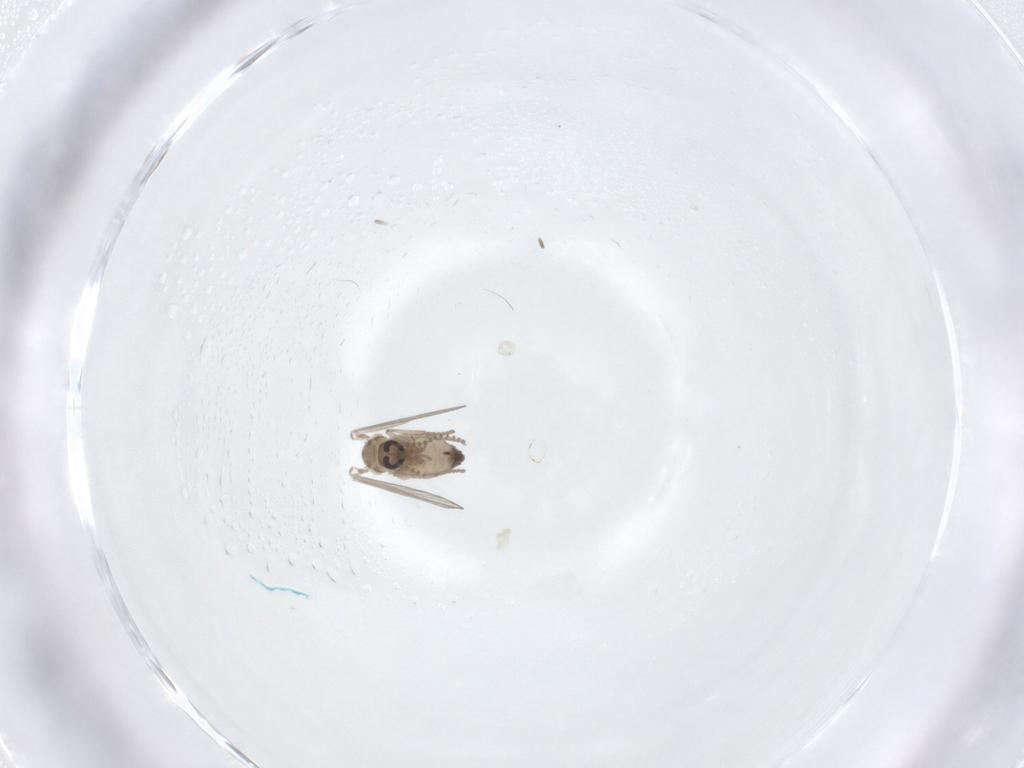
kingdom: Animalia
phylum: Arthropoda
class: Insecta
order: Diptera
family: Psychodidae
